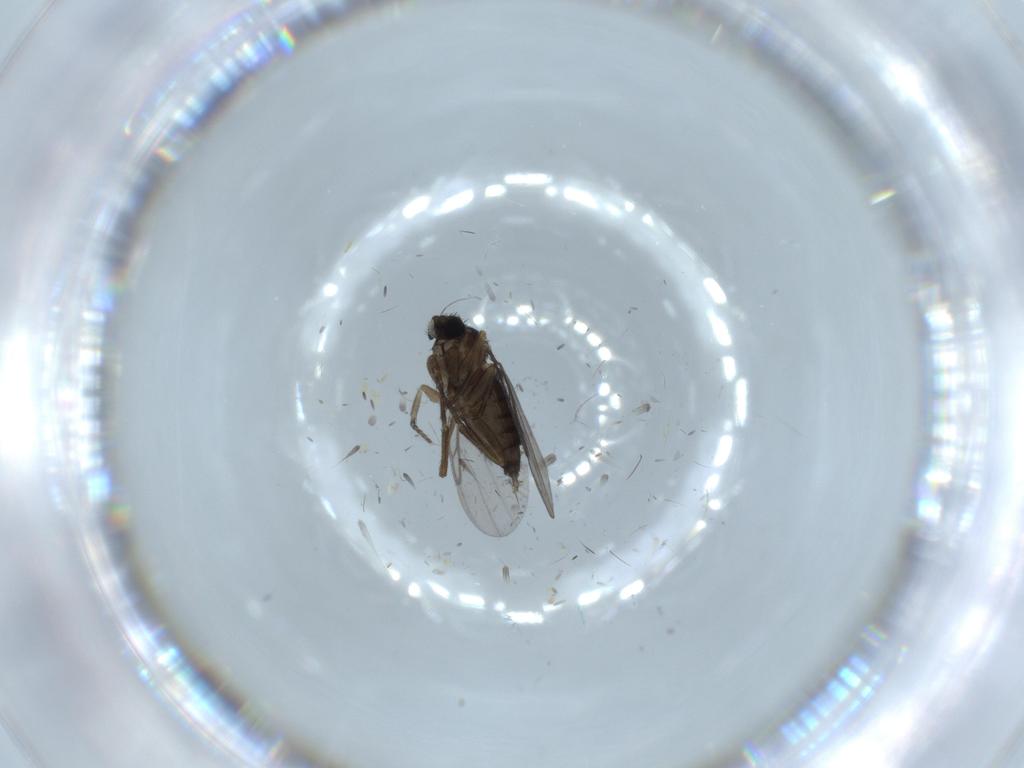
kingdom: Animalia
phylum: Arthropoda
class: Insecta
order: Diptera
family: Phoridae
